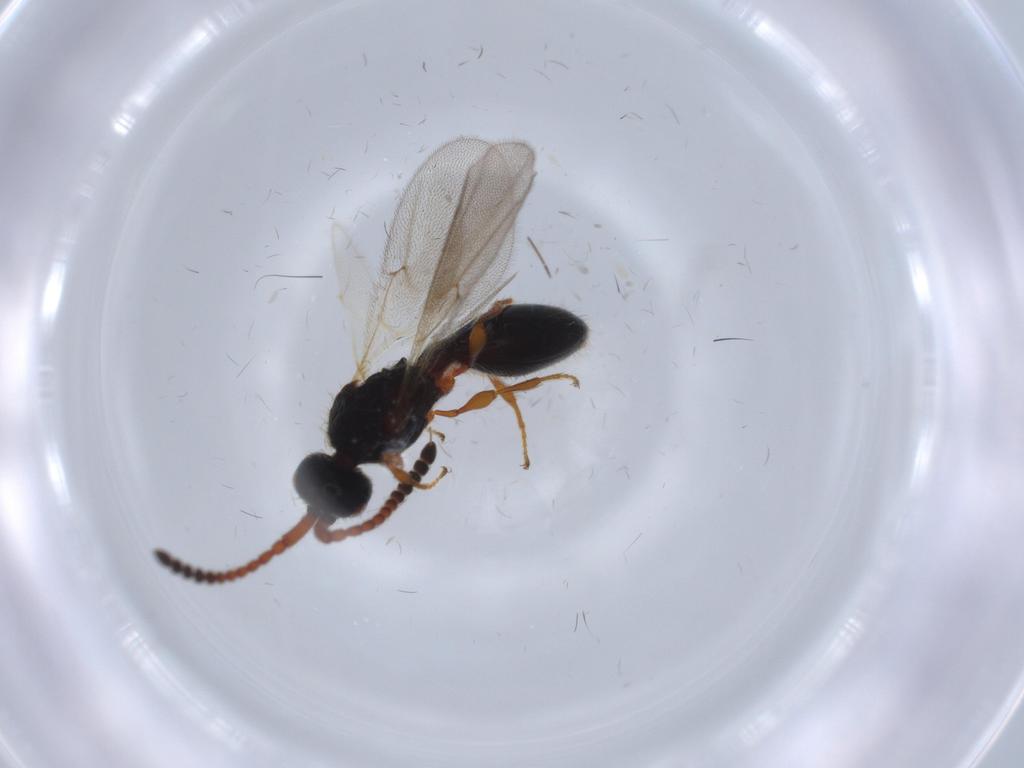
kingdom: Animalia
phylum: Arthropoda
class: Insecta
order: Hymenoptera
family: Diapriidae
